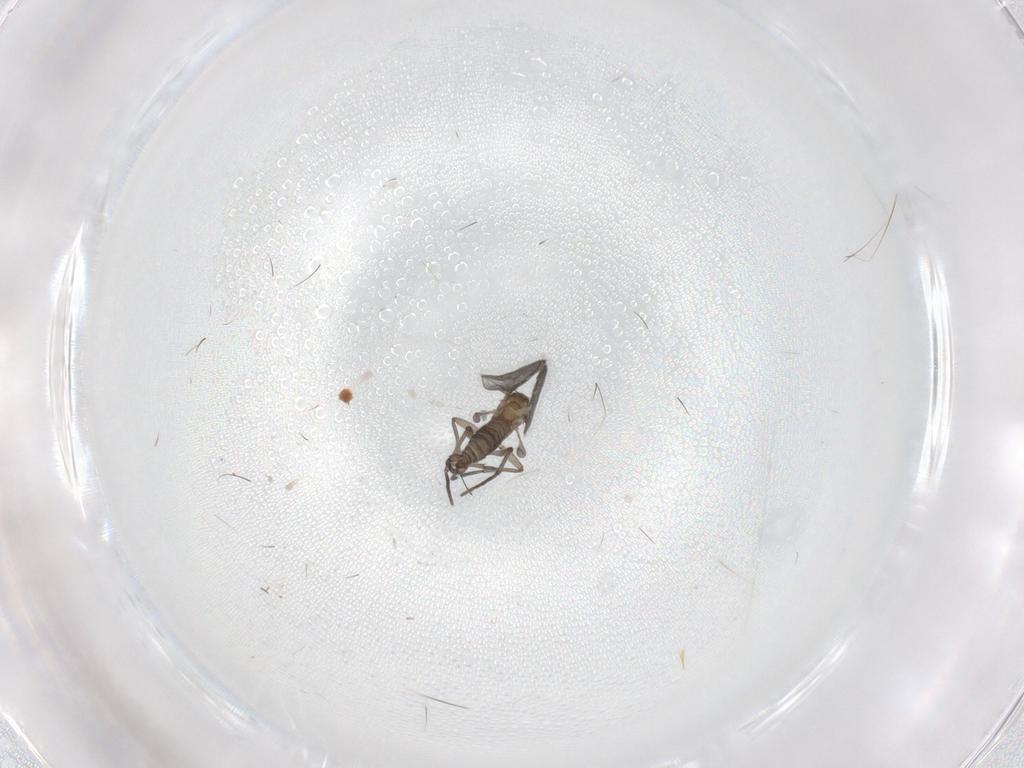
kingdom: Animalia
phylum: Arthropoda
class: Insecta
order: Diptera
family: Sciaridae
